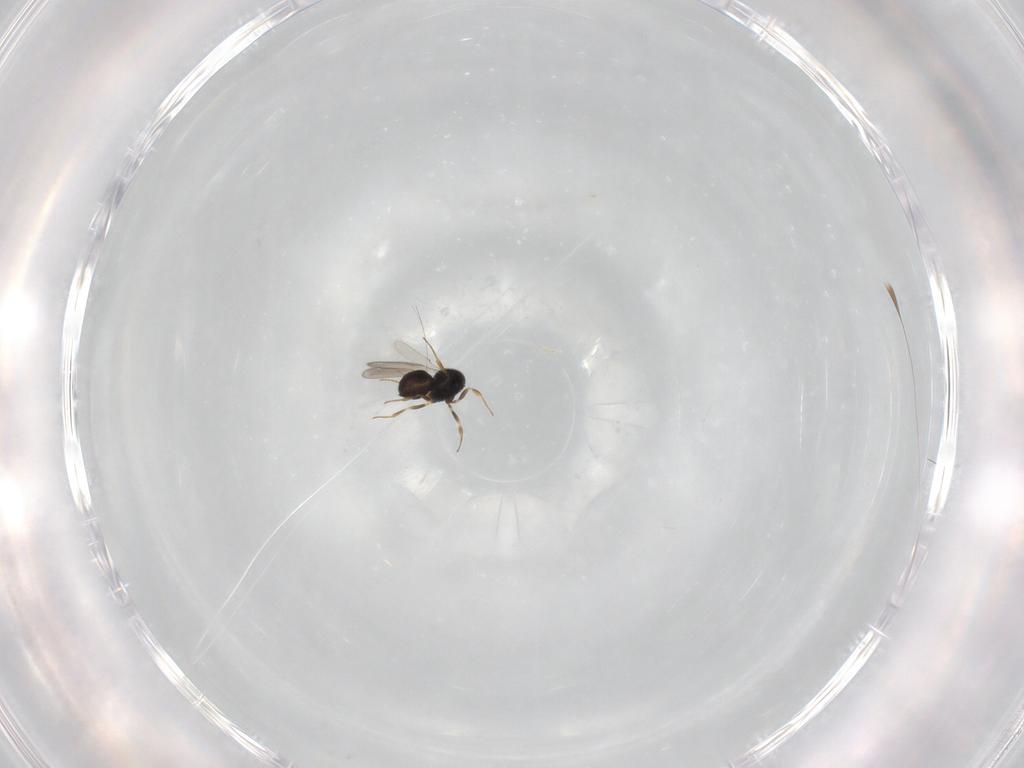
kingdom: Animalia
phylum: Arthropoda
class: Insecta
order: Hymenoptera
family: Scelionidae
